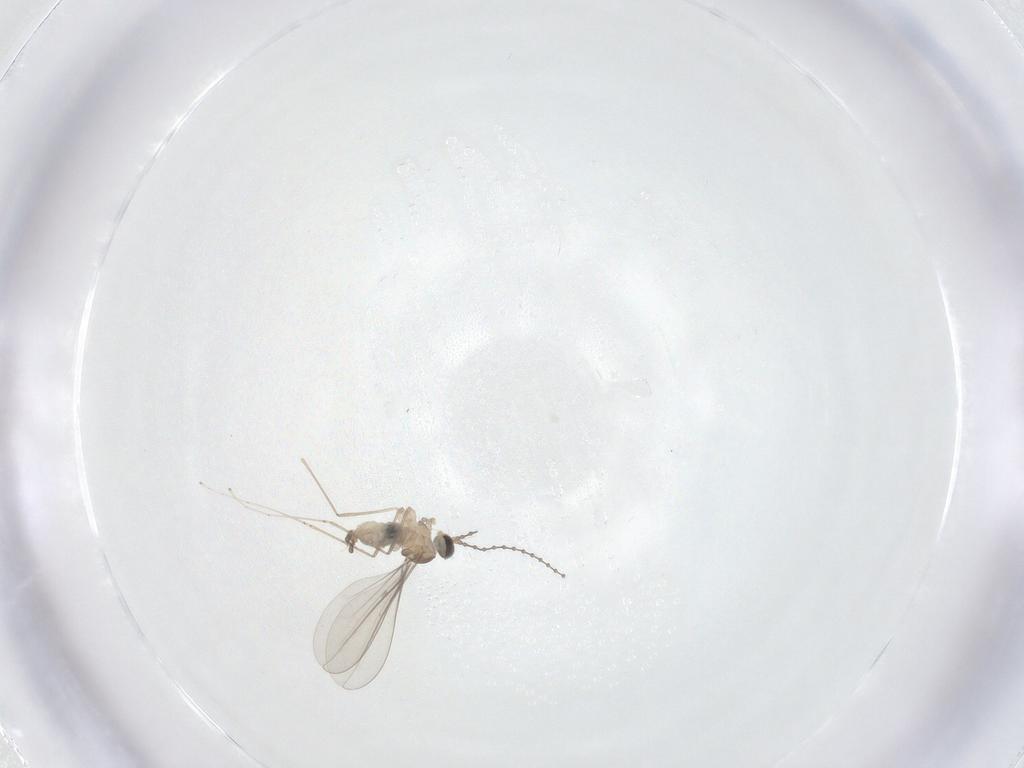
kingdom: Animalia
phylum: Arthropoda
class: Insecta
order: Diptera
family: Cecidomyiidae
